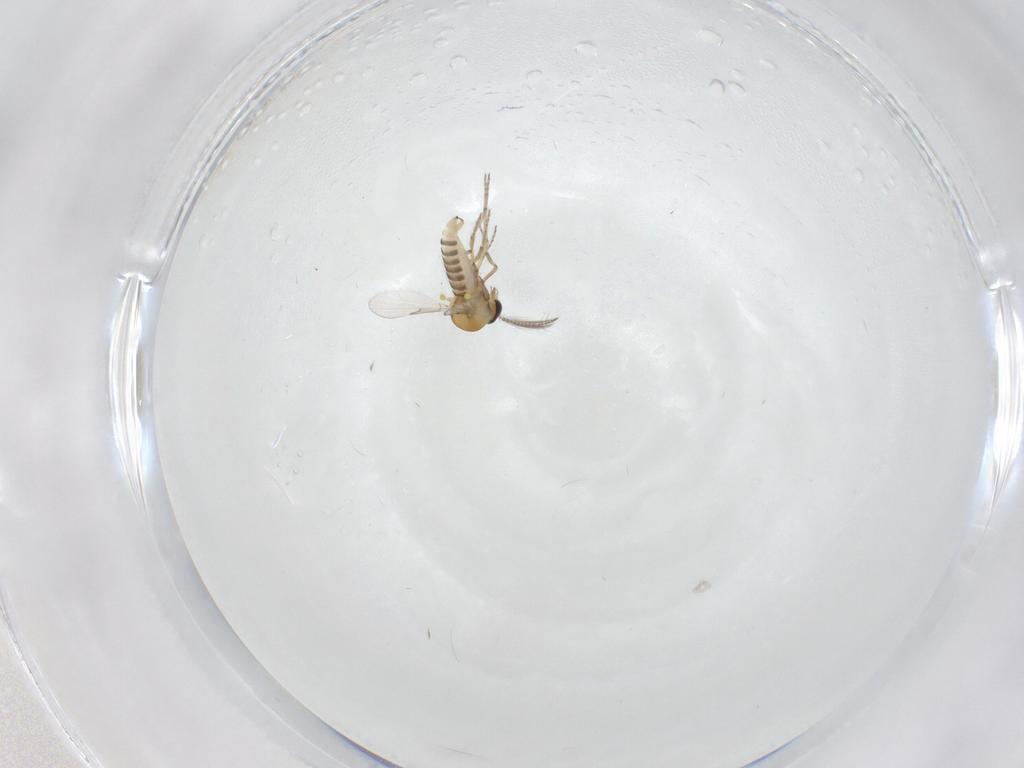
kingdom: Animalia
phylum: Arthropoda
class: Insecta
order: Diptera
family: Ceratopogonidae
